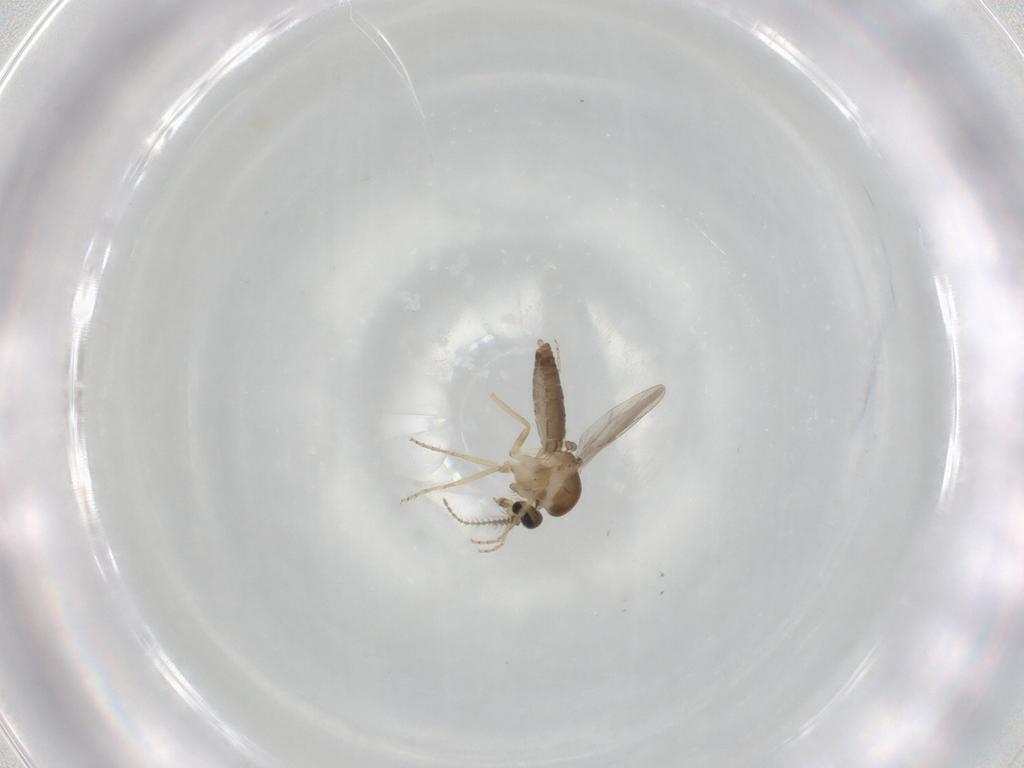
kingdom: Animalia
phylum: Arthropoda
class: Insecta
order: Diptera
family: Ceratopogonidae
